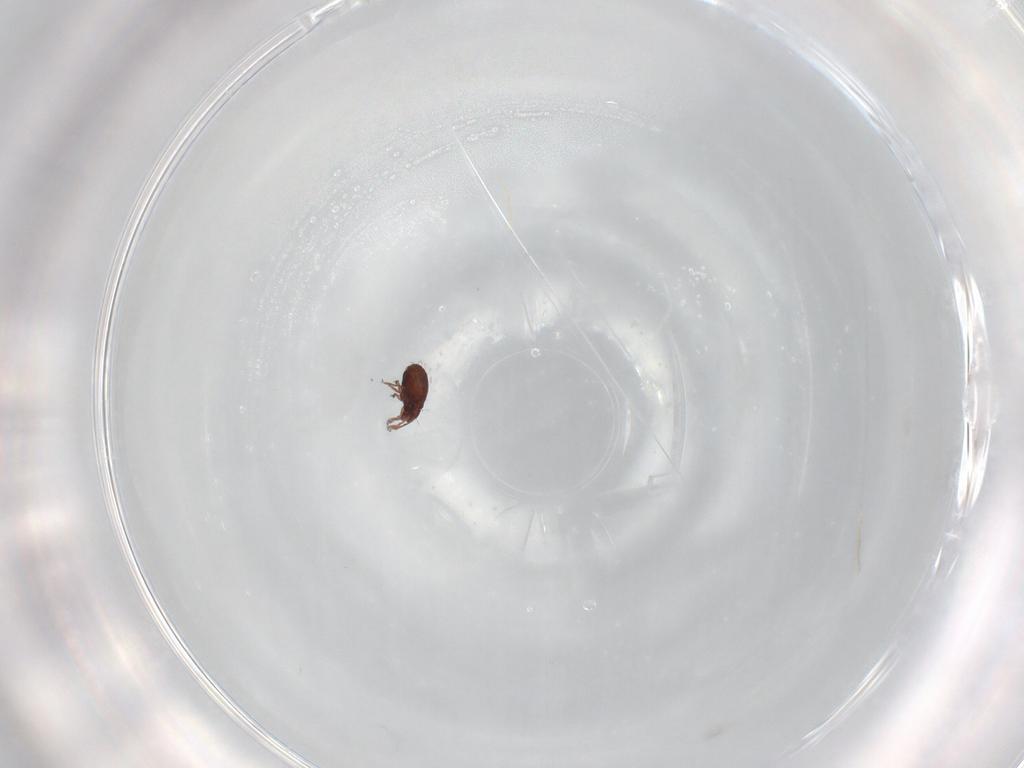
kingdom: Animalia
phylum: Arthropoda
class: Arachnida
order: Sarcoptiformes
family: Scheloribatidae
